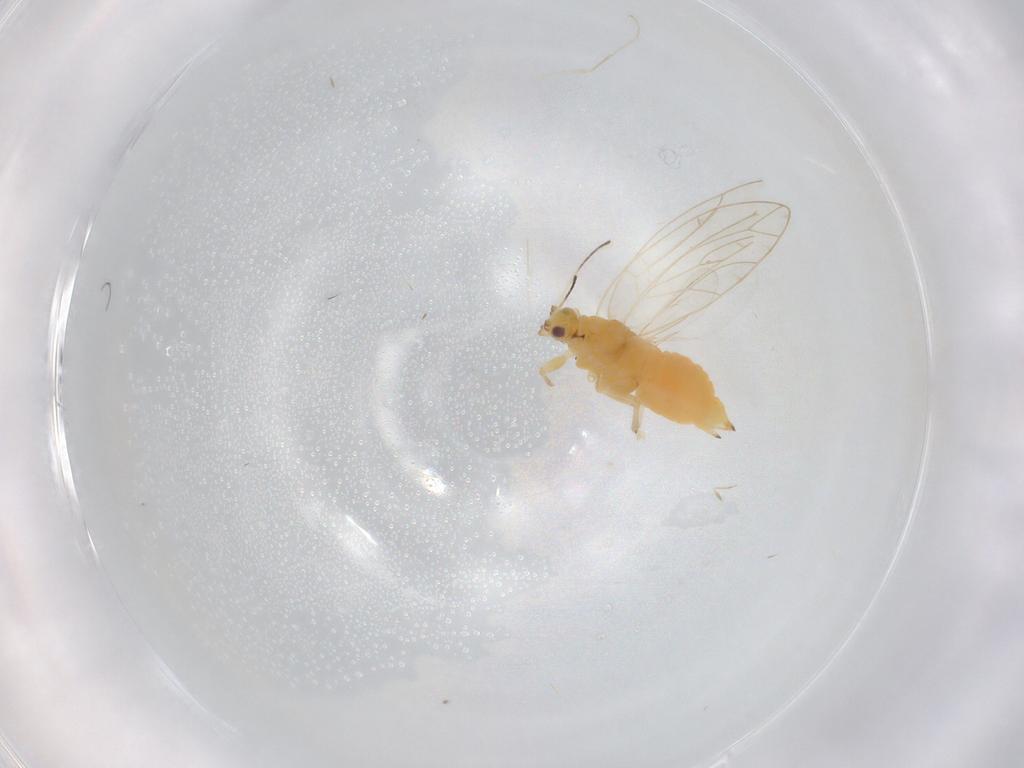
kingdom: Animalia
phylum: Arthropoda
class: Insecta
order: Hemiptera
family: Triozidae
